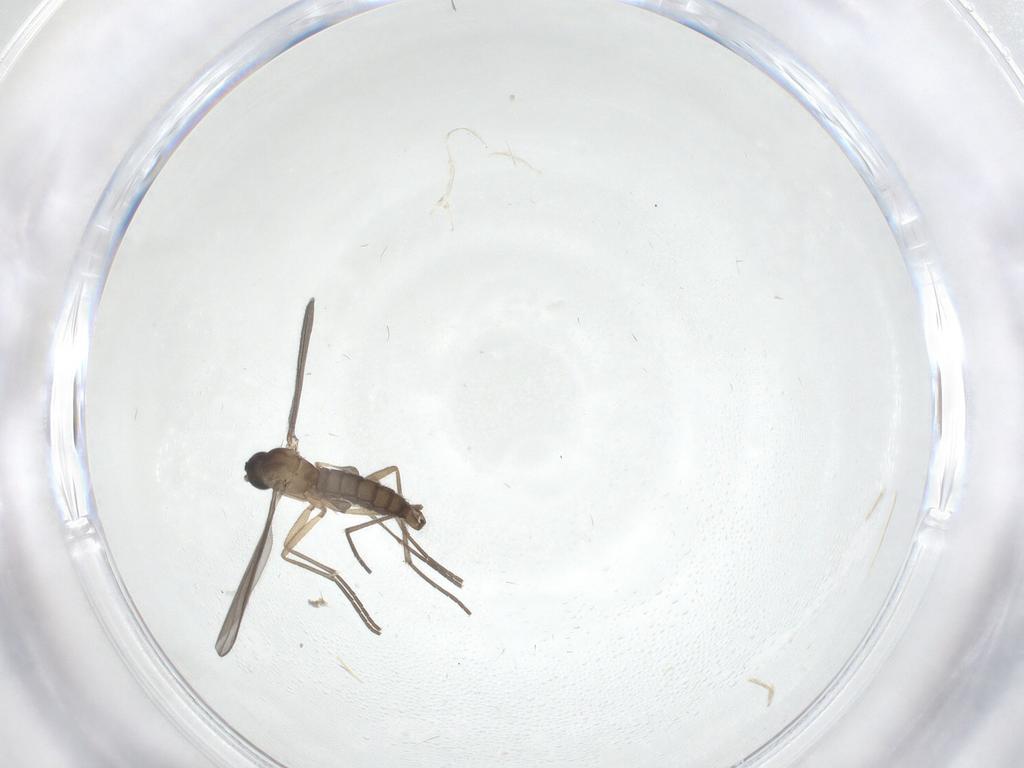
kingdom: Animalia
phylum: Arthropoda
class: Insecta
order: Diptera
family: Sciaridae
